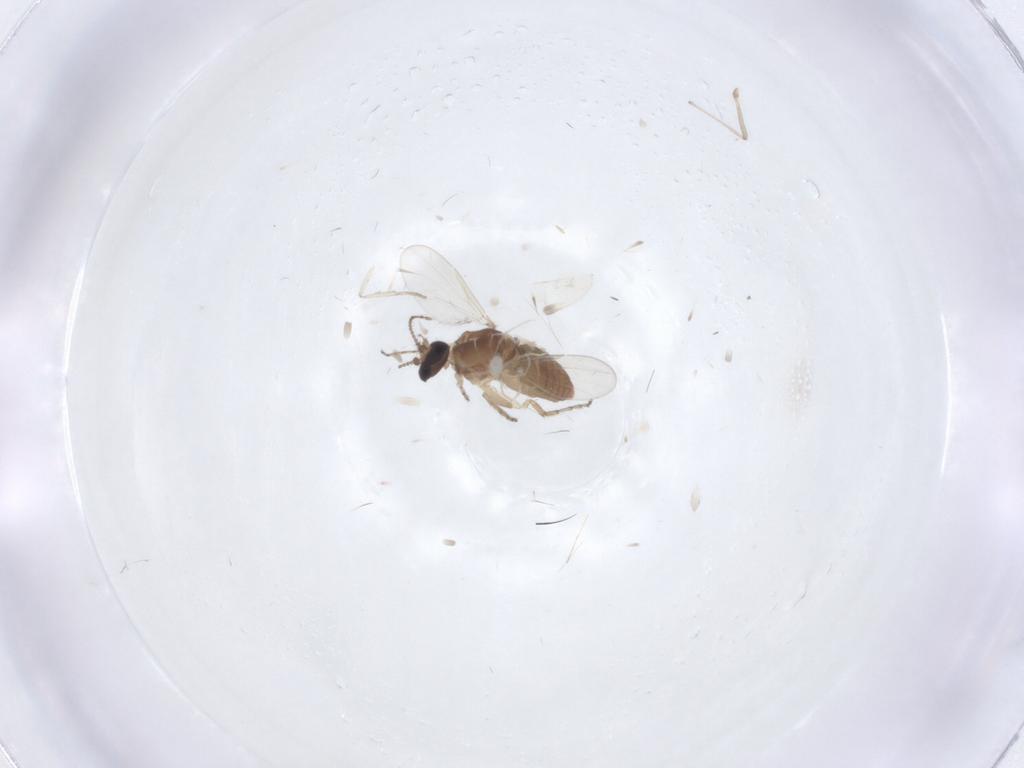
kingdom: Animalia
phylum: Arthropoda
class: Insecta
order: Diptera
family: Ceratopogonidae
